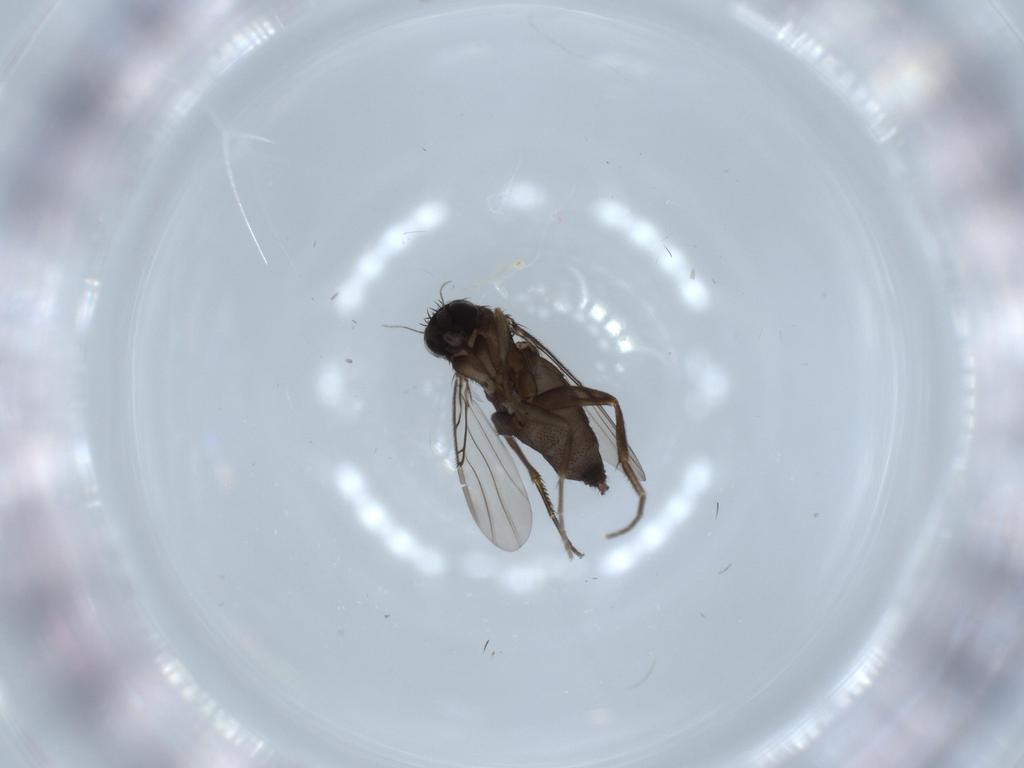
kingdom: Animalia
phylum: Arthropoda
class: Insecta
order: Diptera
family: Phoridae
